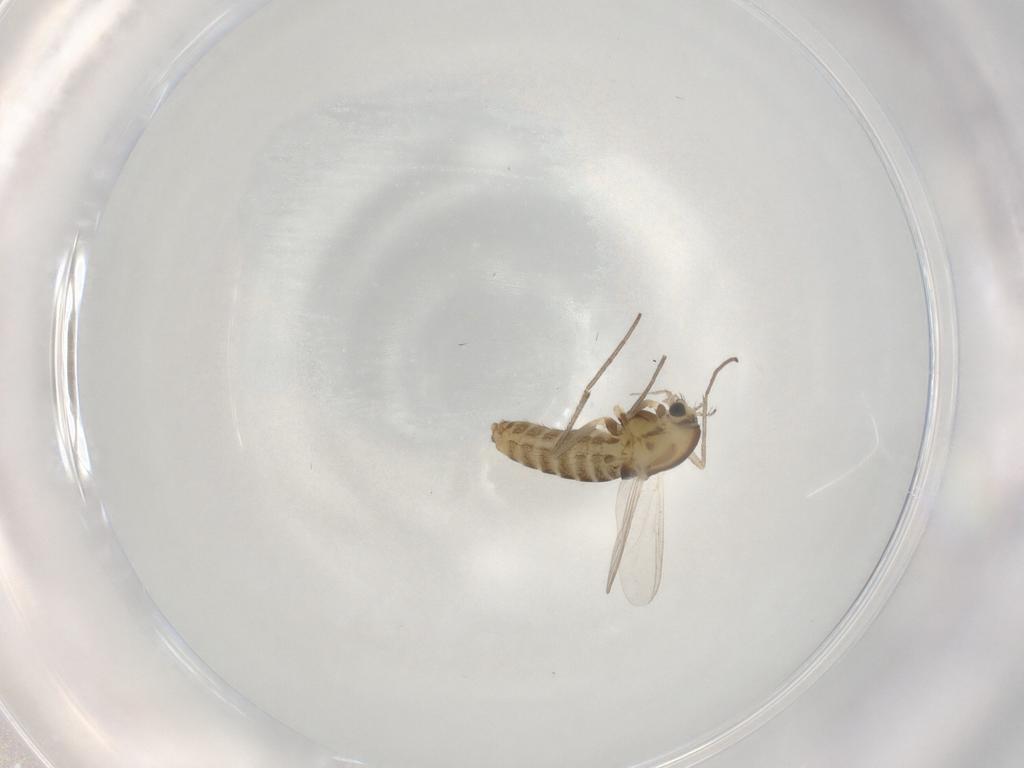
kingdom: Animalia
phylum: Arthropoda
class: Insecta
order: Diptera
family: Chironomidae
